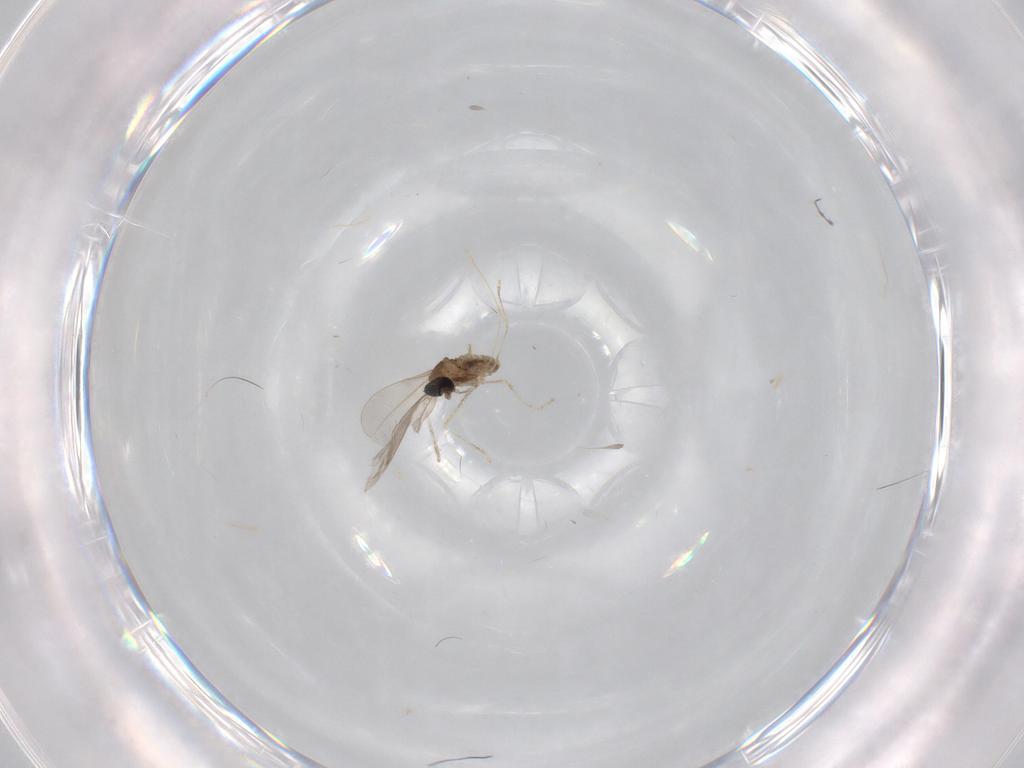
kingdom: Animalia
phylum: Arthropoda
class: Insecta
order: Diptera
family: Cecidomyiidae
